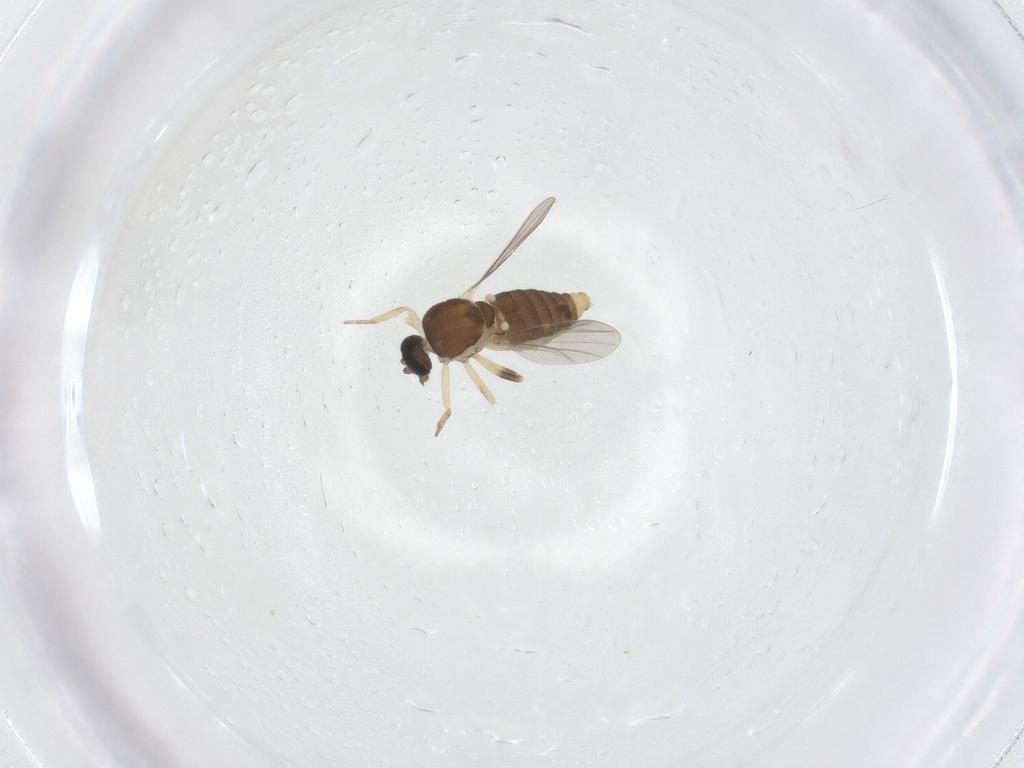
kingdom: Animalia
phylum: Arthropoda
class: Insecta
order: Diptera
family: Ceratopogonidae
